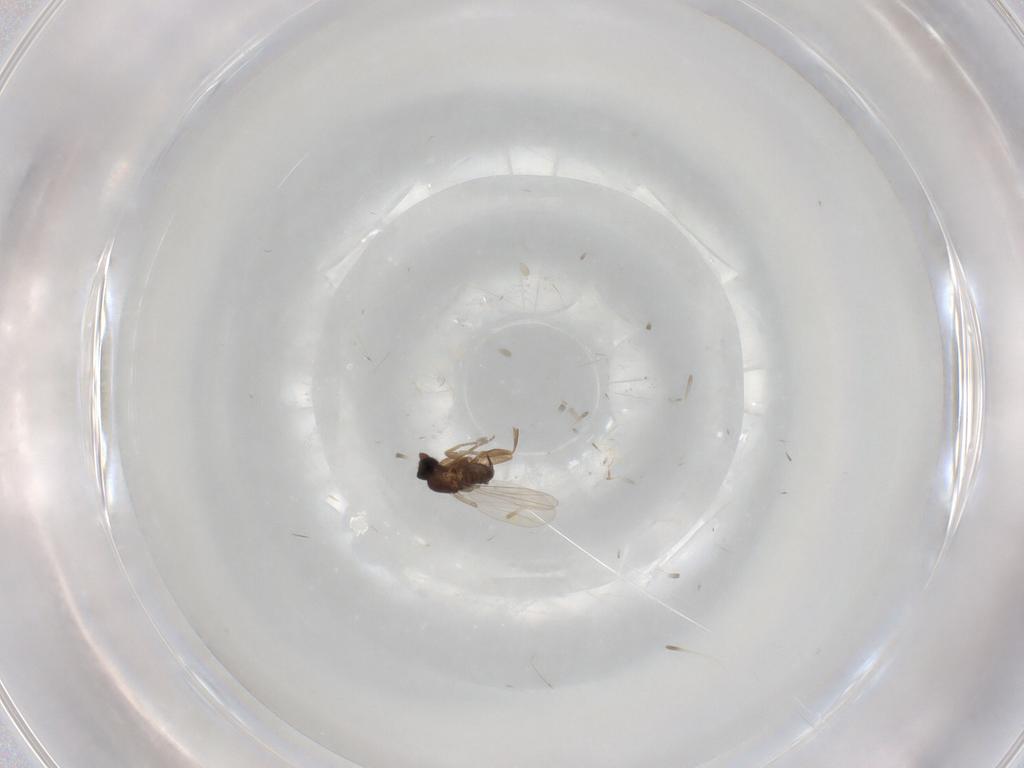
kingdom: Animalia
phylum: Arthropoda
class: Insecta
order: Diptera
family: Phoridae
